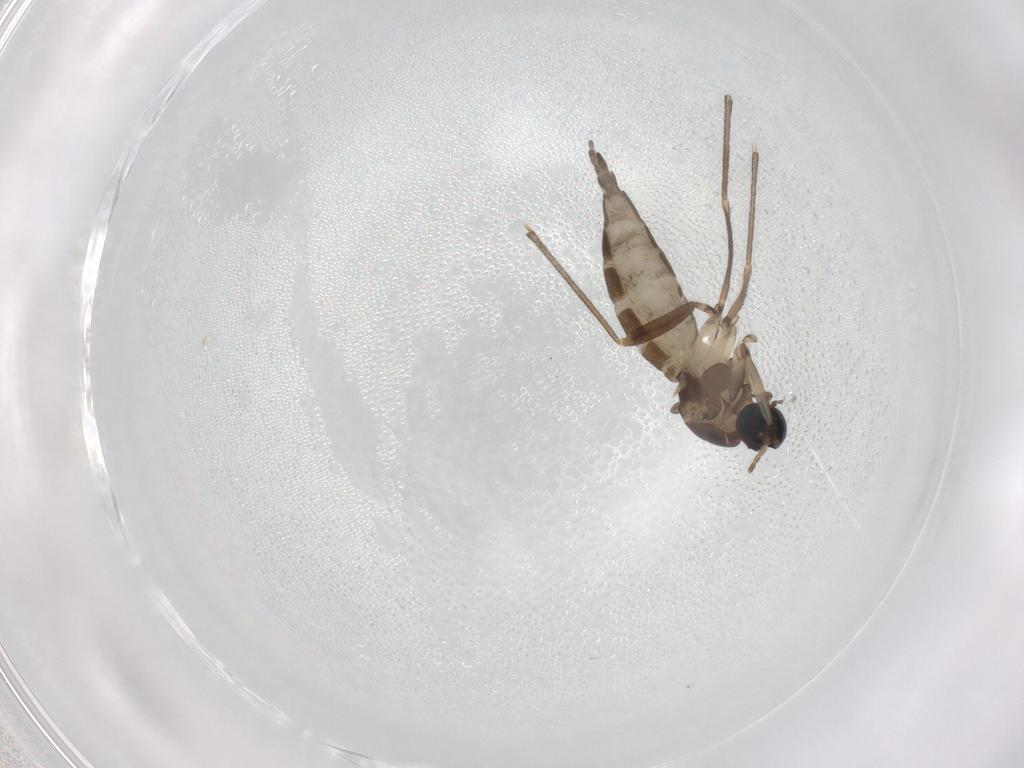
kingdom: Animalia
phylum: Arthropoda
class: Insecta
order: Diptera
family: Sciaridae
